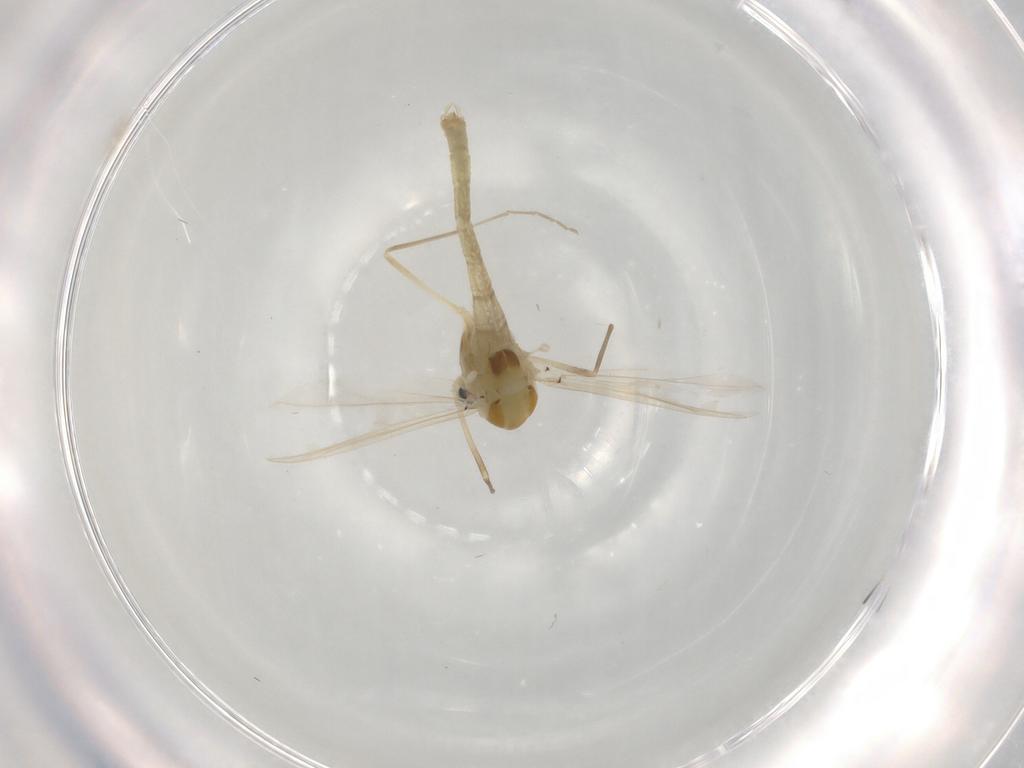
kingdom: Animalia
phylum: Arthropoda
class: Insecta
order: Diptera
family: Chironomidae
